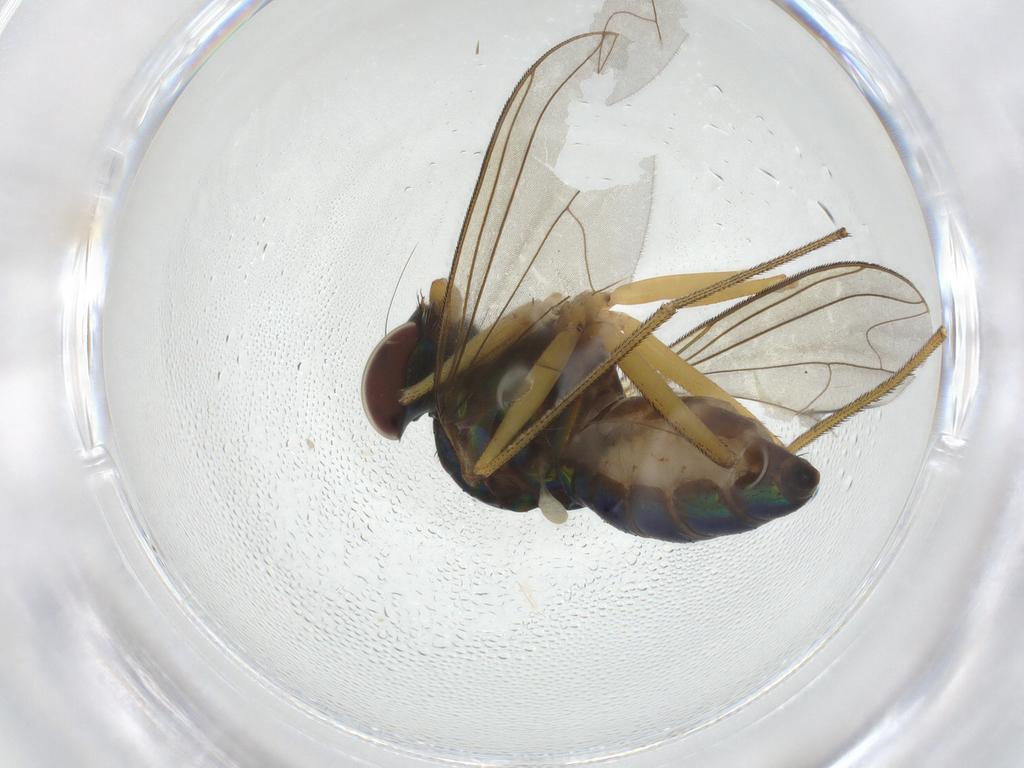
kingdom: Animalia
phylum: Arthropoda
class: Insecta
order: Diptera
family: Dolichopodidae
